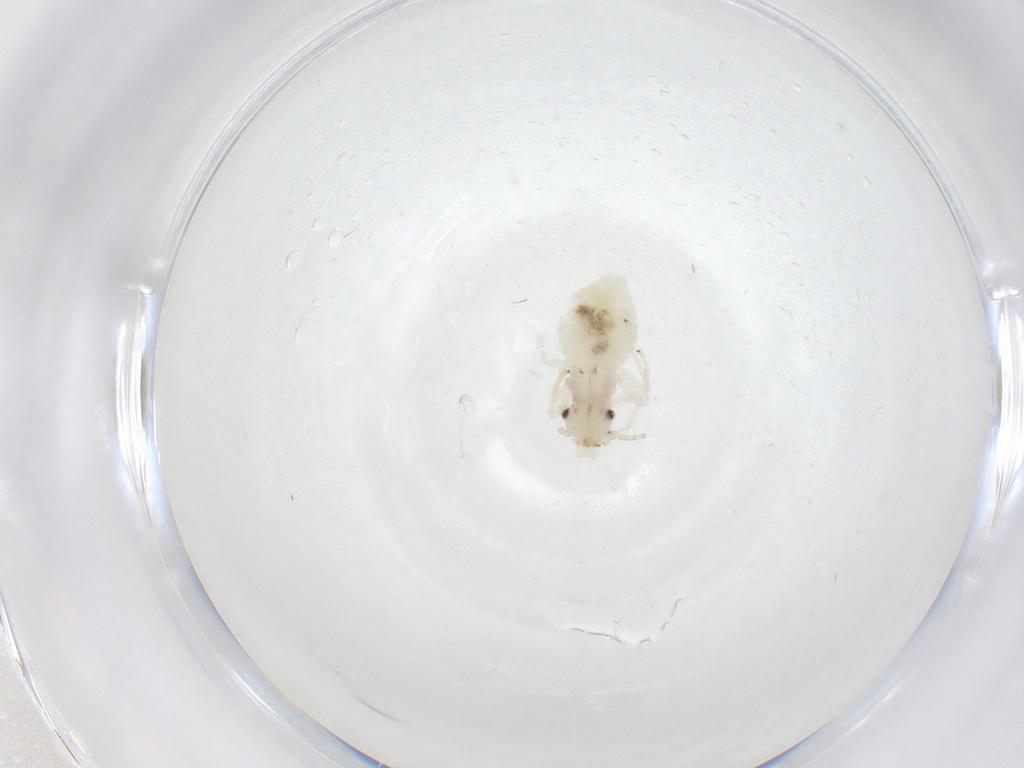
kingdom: Animalia
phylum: Arthropoda
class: Insecta
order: Psocodea
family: Amphipsocidae
